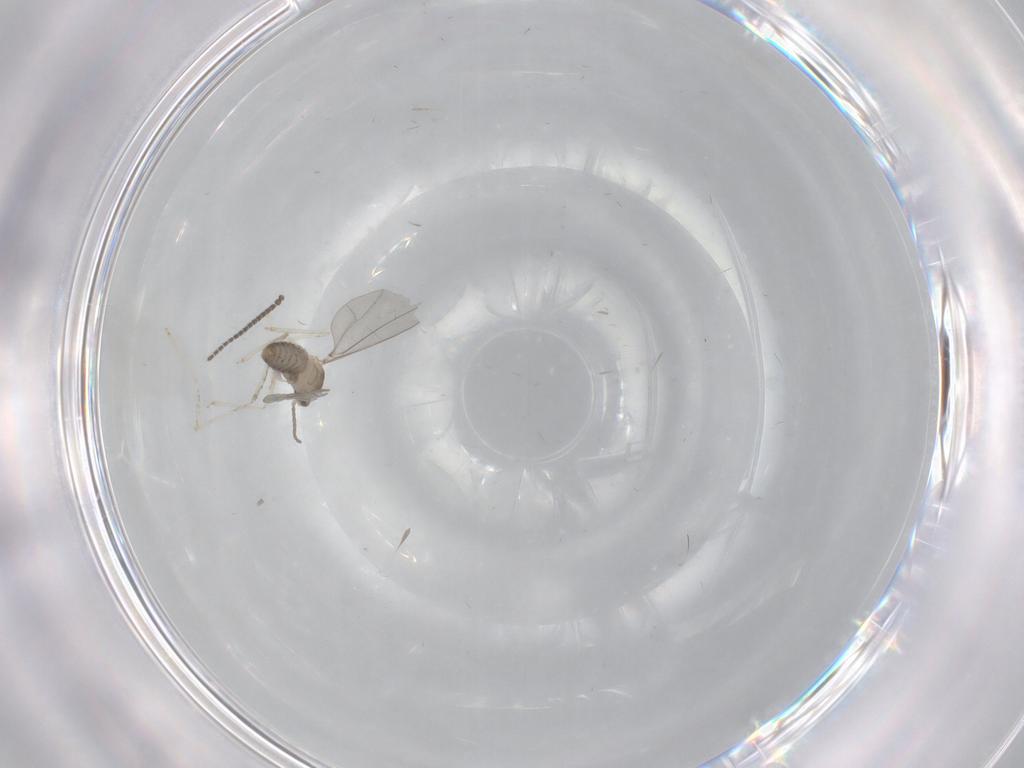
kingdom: Animalia
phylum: Arthropoda
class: Insecta
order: Diptera
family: Cecidomyiidae
